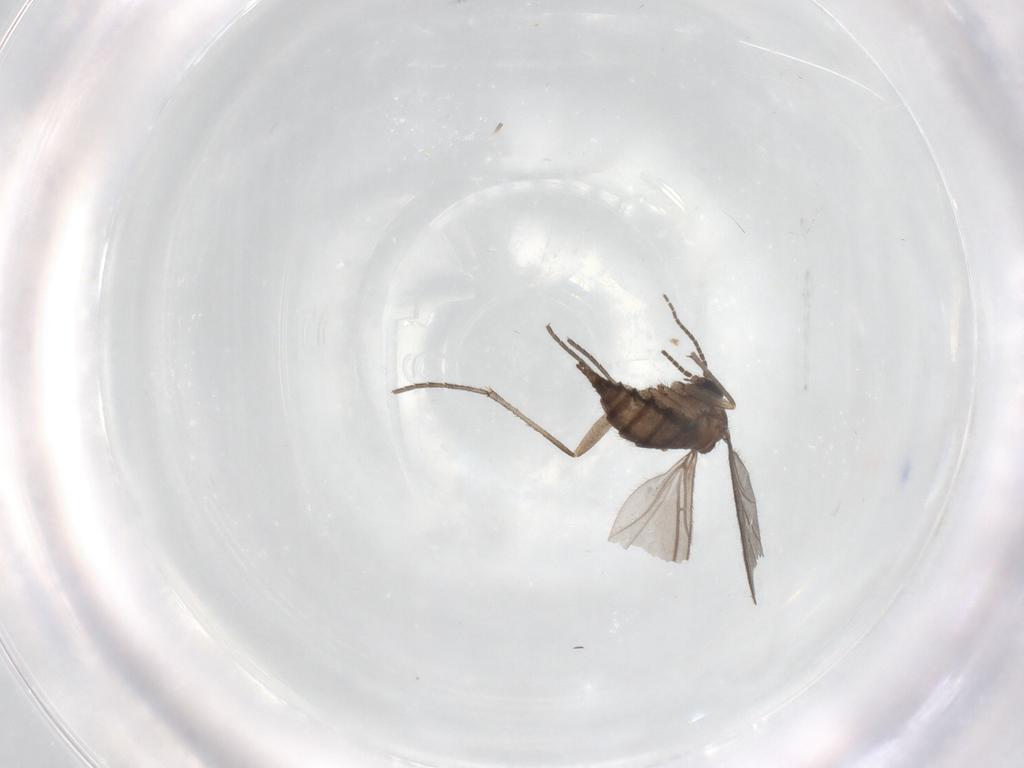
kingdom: Animalia
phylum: Arthropoda
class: Insecta
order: Diptera
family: Sciaridae
